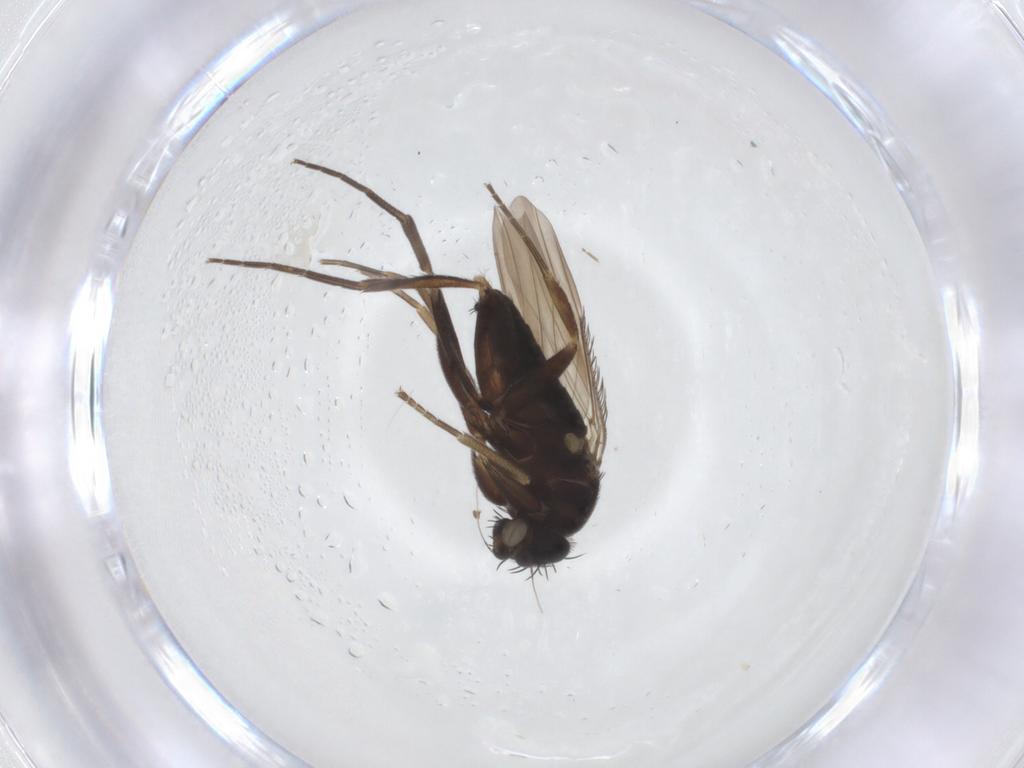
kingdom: Animalia
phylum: Arthropoda
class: Insecta
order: Diptera
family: Phoridae
